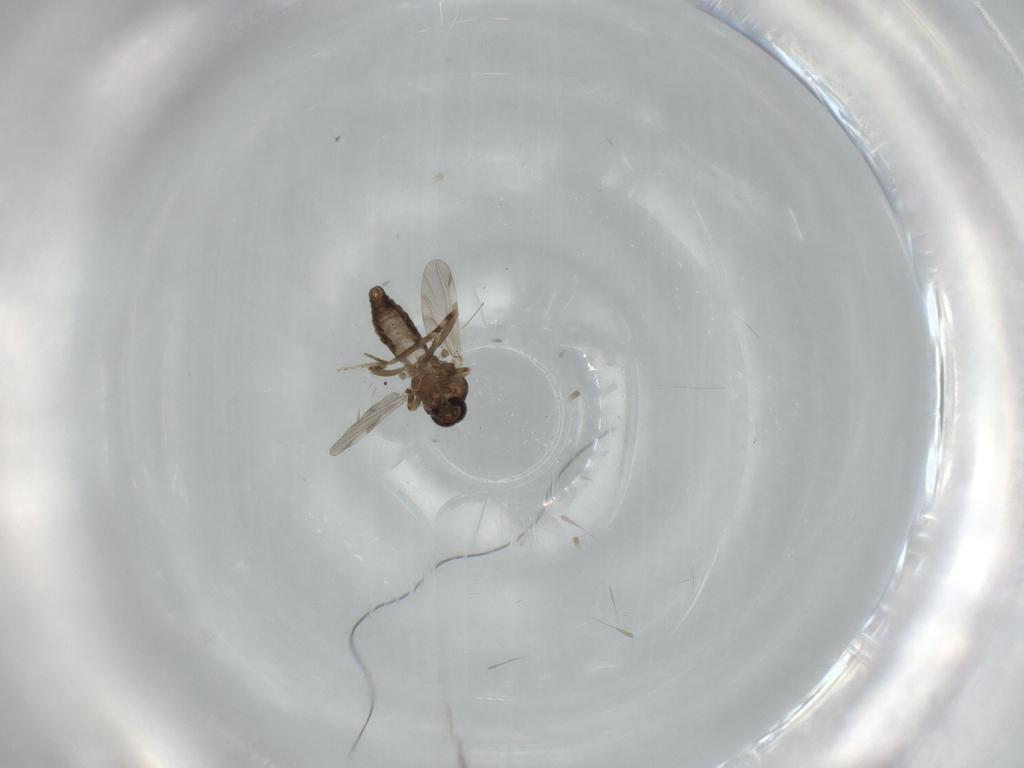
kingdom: Animalia
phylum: Arthropoda
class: Insecta
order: Diptera
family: Ceratopogonidae
